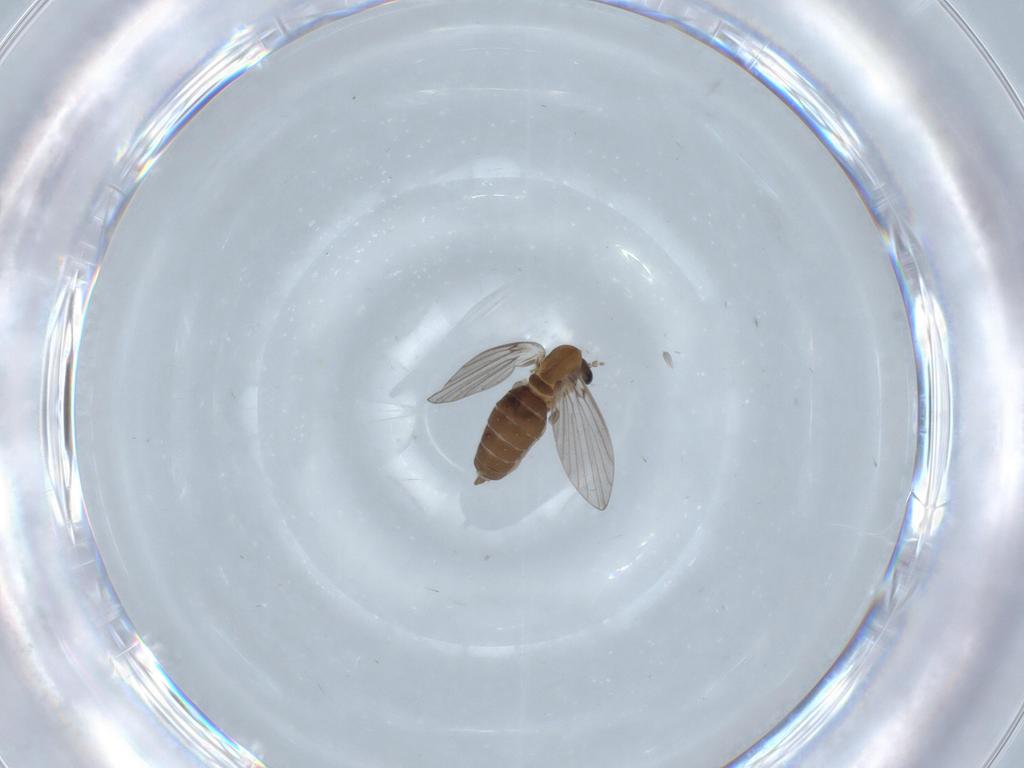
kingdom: Animalia
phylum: Arthropoda
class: Insecta
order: Diptera
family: Psychodidae
